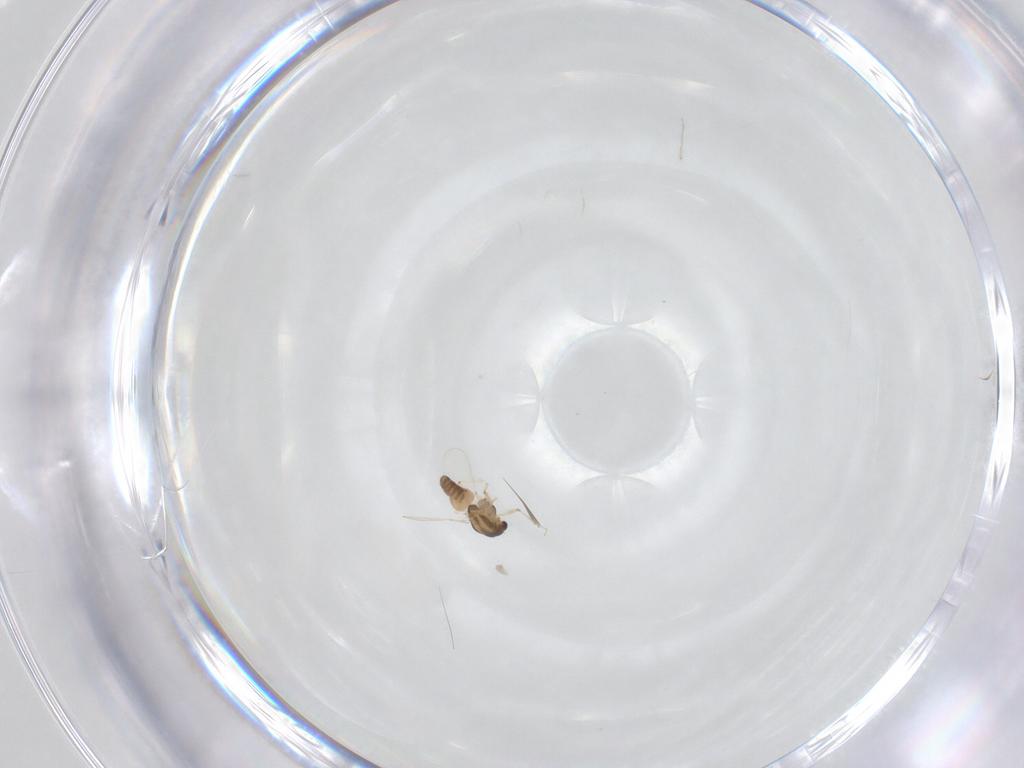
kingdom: Animalia
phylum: Arthropoda
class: Insecta
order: Diptera
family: Chironomidae
